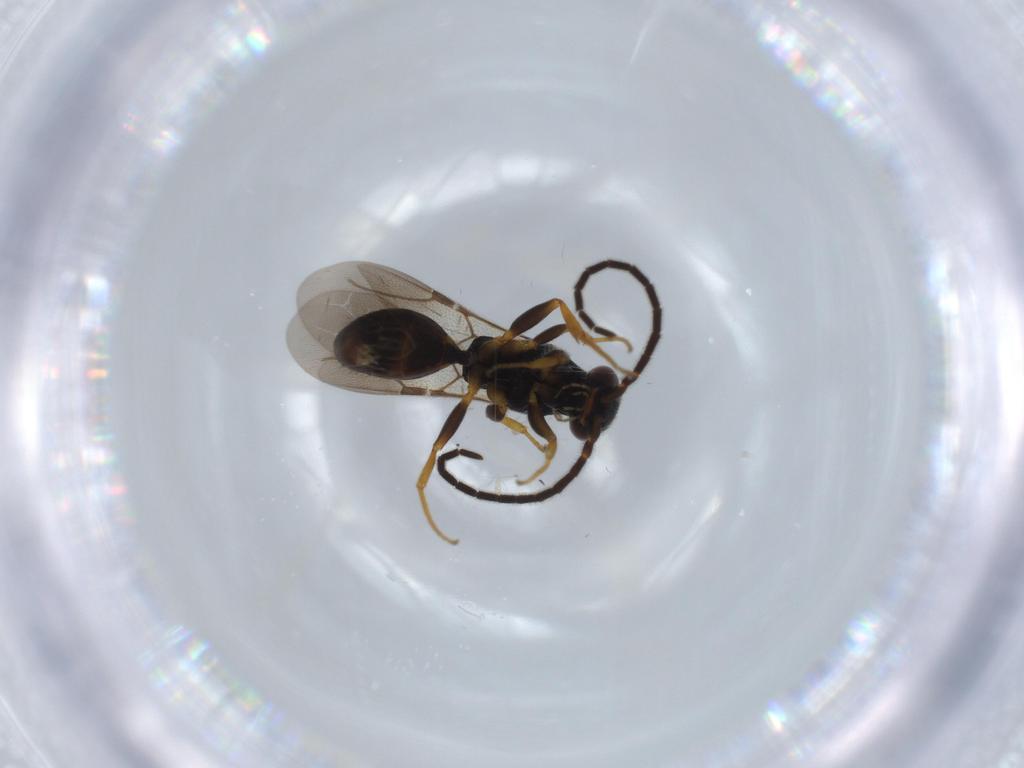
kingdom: Animalia
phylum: Arthropoda
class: Insecta
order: Hymenoptera
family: Bethylidae
